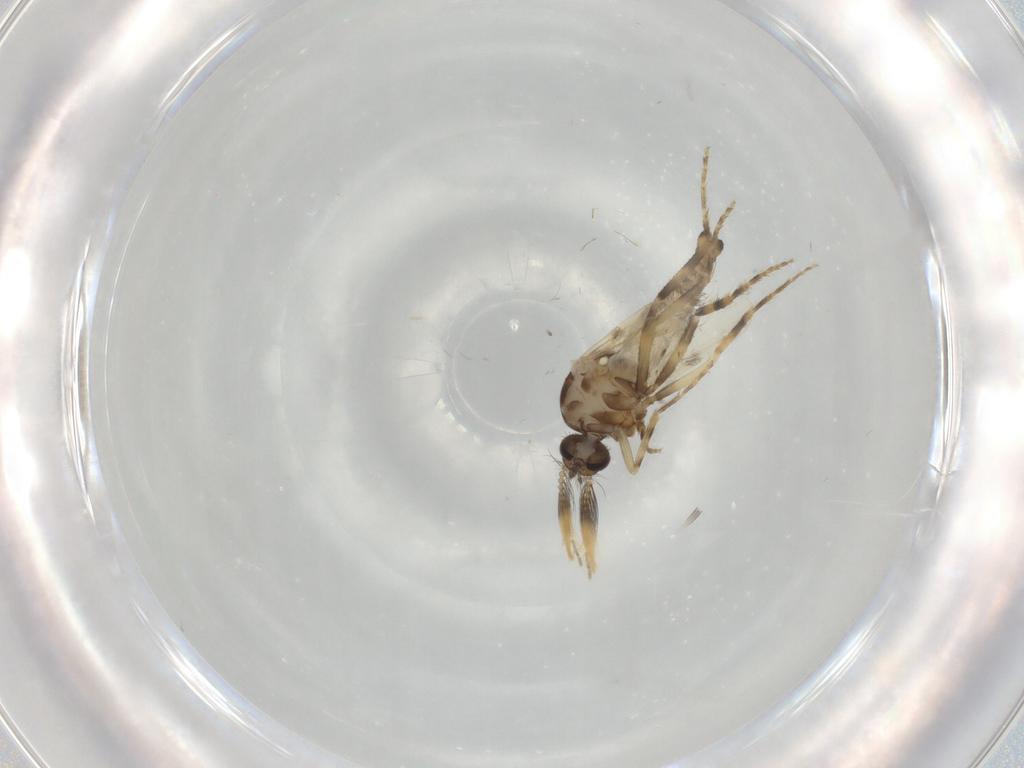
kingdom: Animalia
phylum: Arthropoda
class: Insecta
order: Diptera
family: Ceratopogonidae
